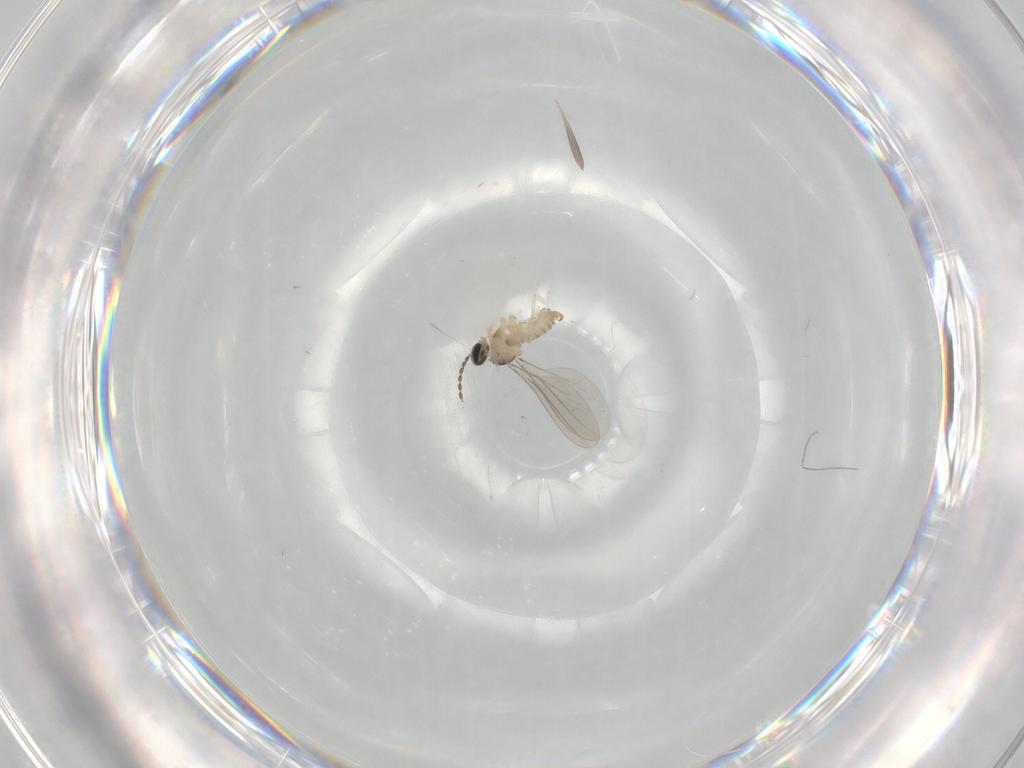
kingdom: Animalia
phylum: Arthropoda
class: Insecta
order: Diptera
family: Cecidomyiidae
